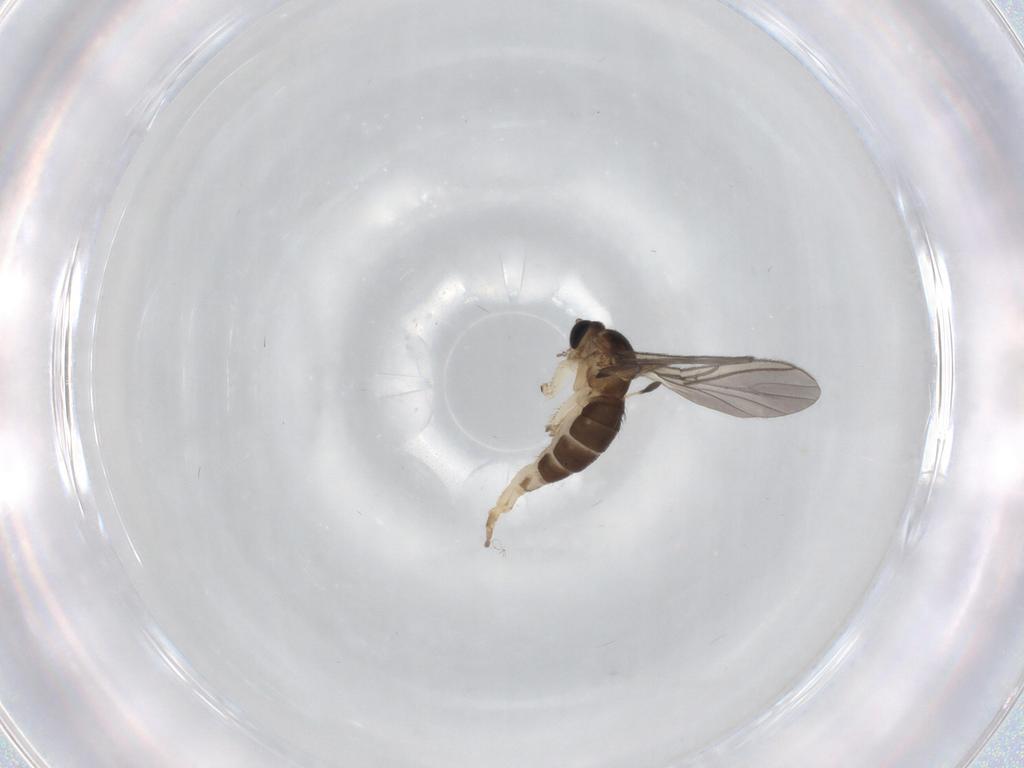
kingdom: Animalia
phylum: Arthropoda
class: Insecta
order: Diptera
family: Sciaridae
